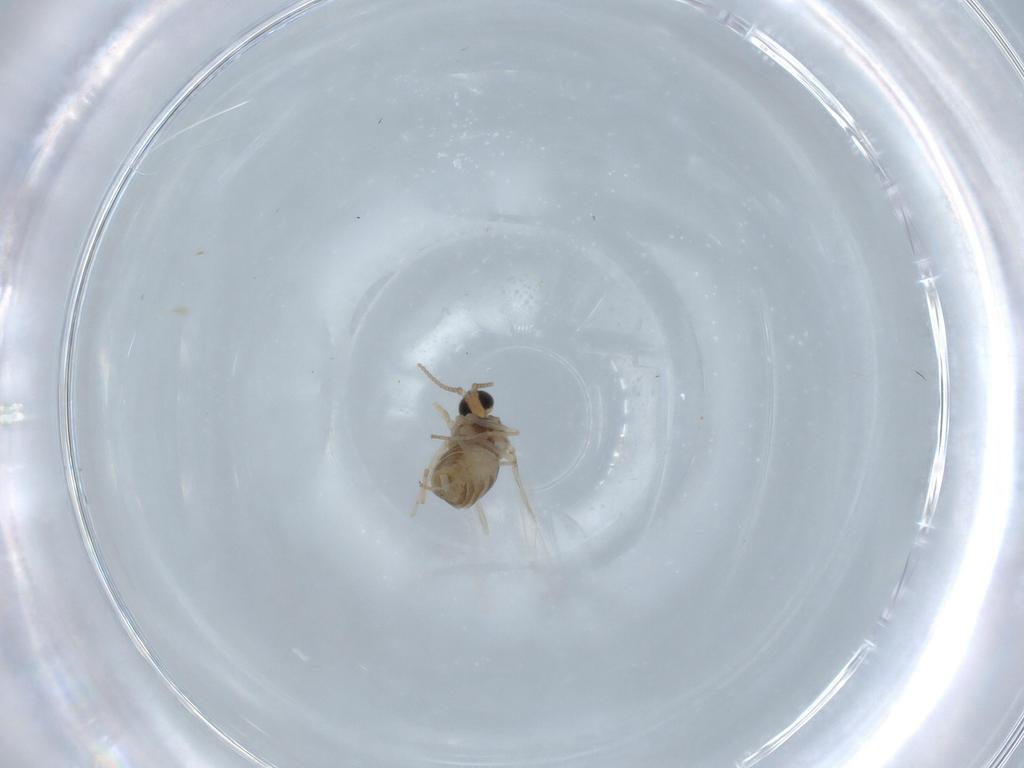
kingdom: Animalia
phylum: Arthropoda
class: Insecta
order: Diptera
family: Cecidomyiidae
